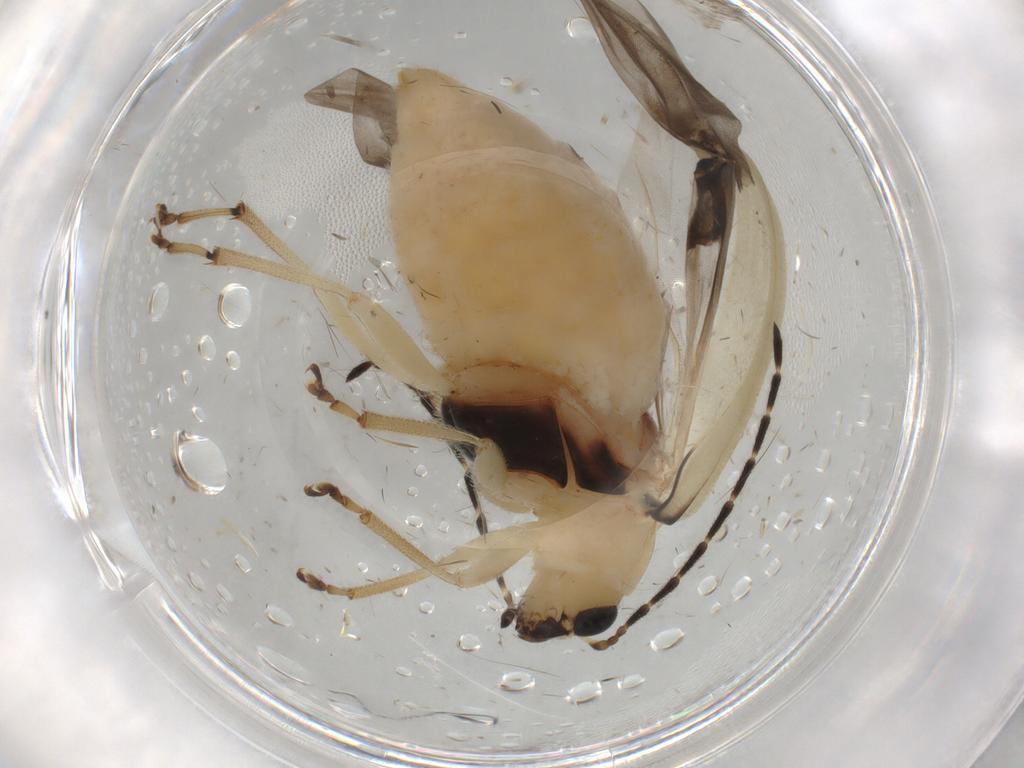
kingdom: Animalia
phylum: Arthropoda
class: Insecta
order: Coleoptera
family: Chrysomelidae
